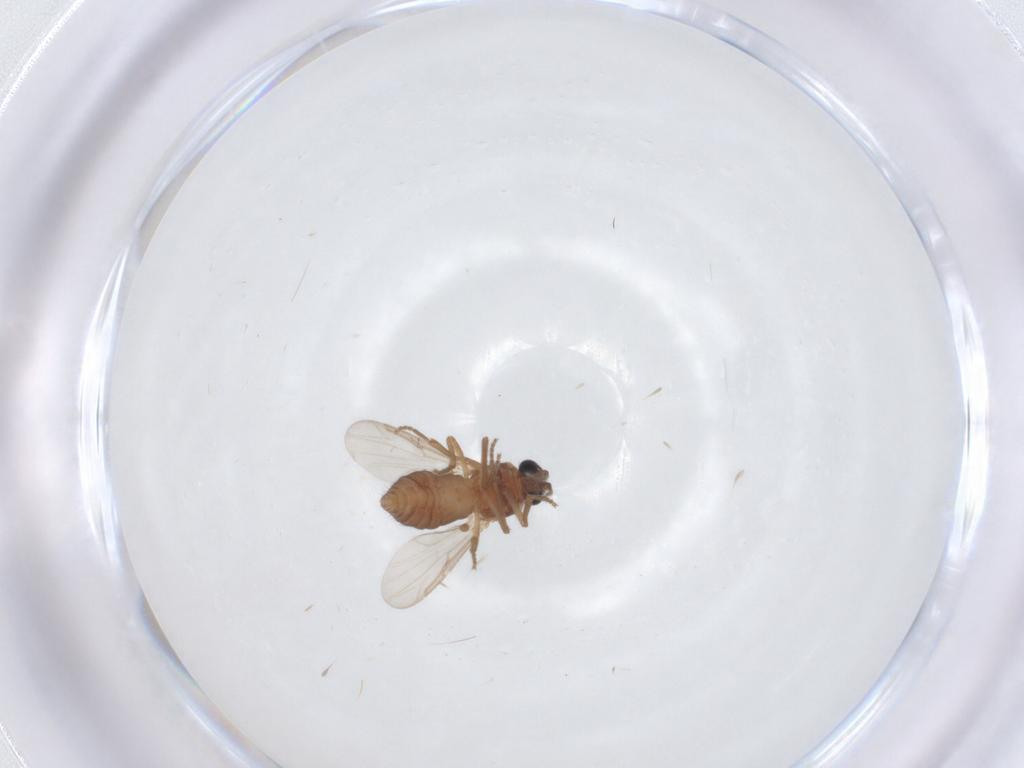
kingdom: Animalia
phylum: Arthropoda
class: Insecta
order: Diptera
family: Ceratopogonidae
